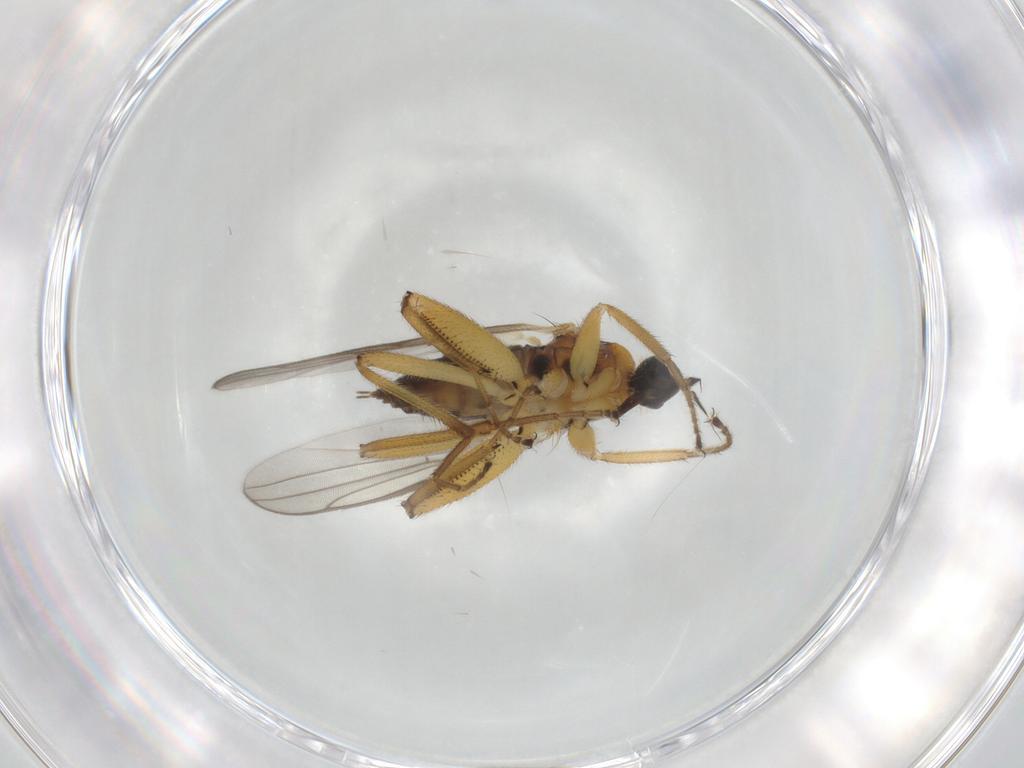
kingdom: Animalia
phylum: Arthropoda
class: Insecta
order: Diptera
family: Hybotidae
